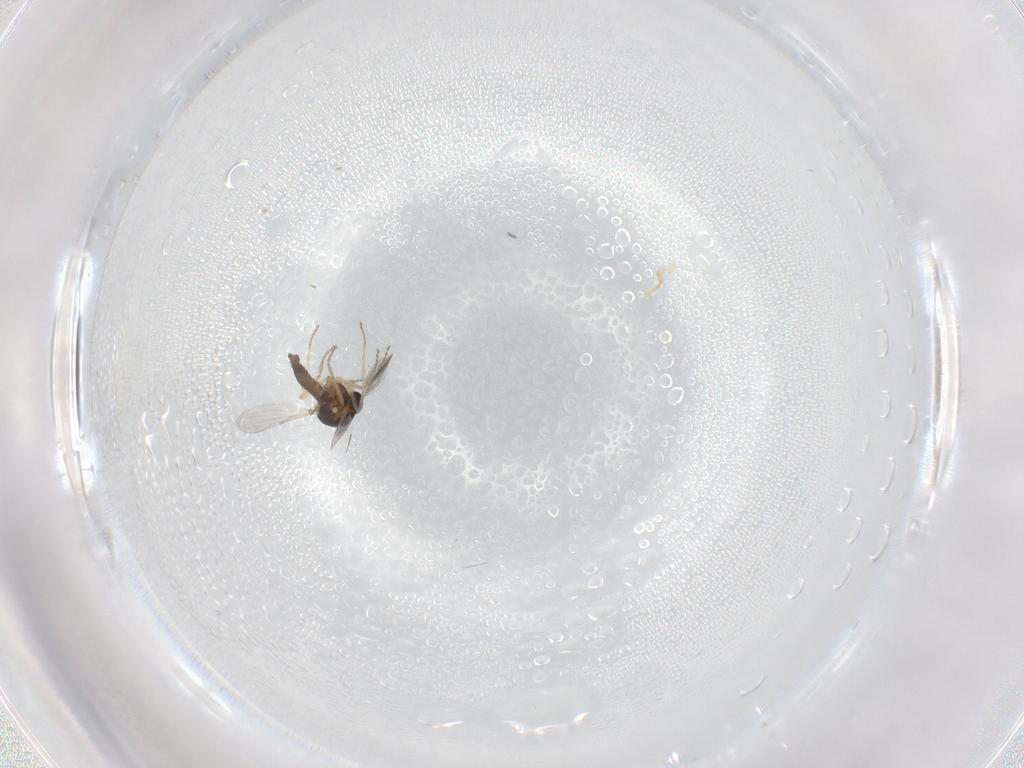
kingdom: Animalia
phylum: Arthropoda
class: Insecta
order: Diptera
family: Ceratopogonidae
